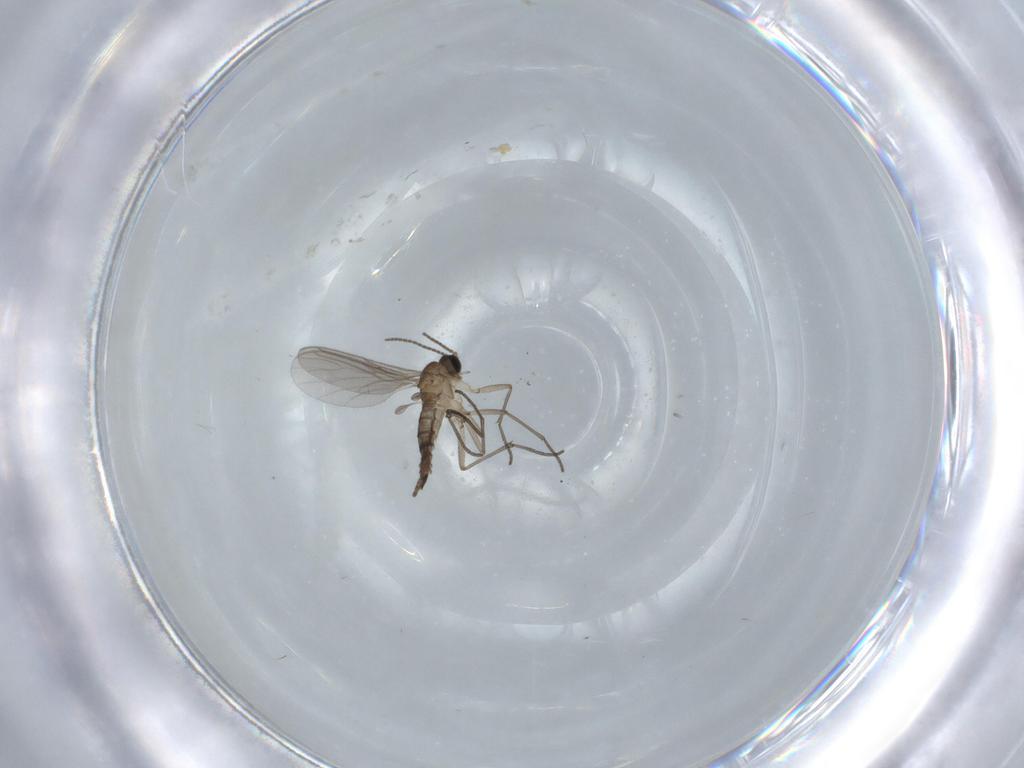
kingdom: Animalia
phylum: Arthropoda
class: Insecta
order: Diptera
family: Sciaridae
